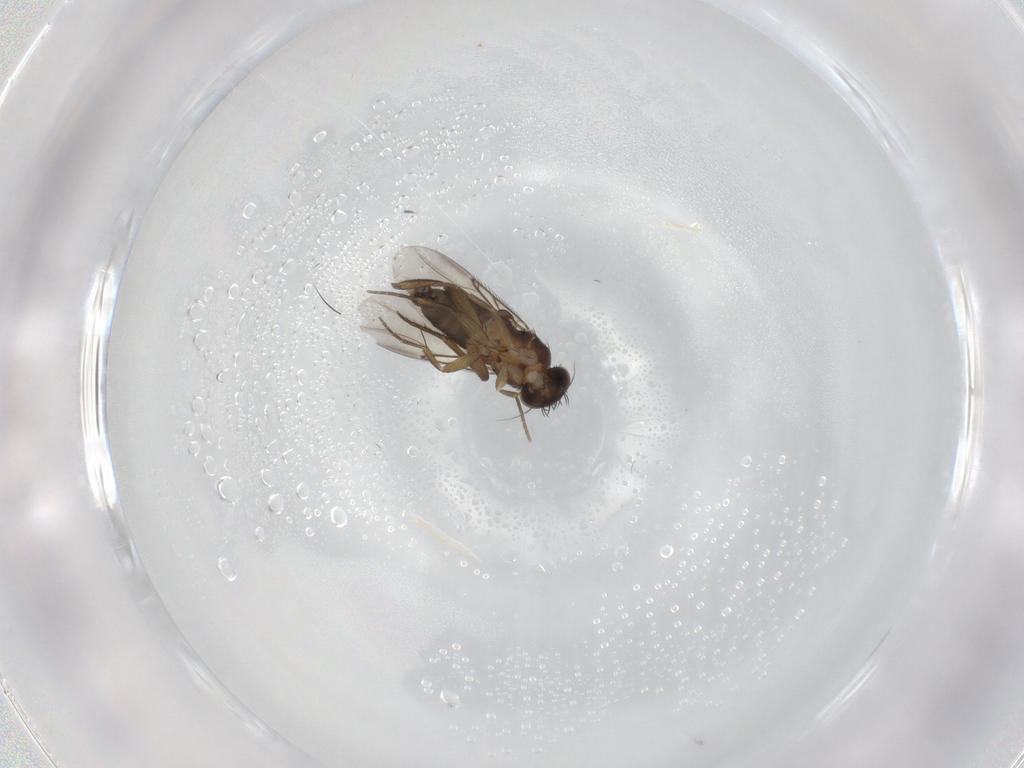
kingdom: Animalia
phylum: Arthropoda
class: Insecta
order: Diptera
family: Phoridae
